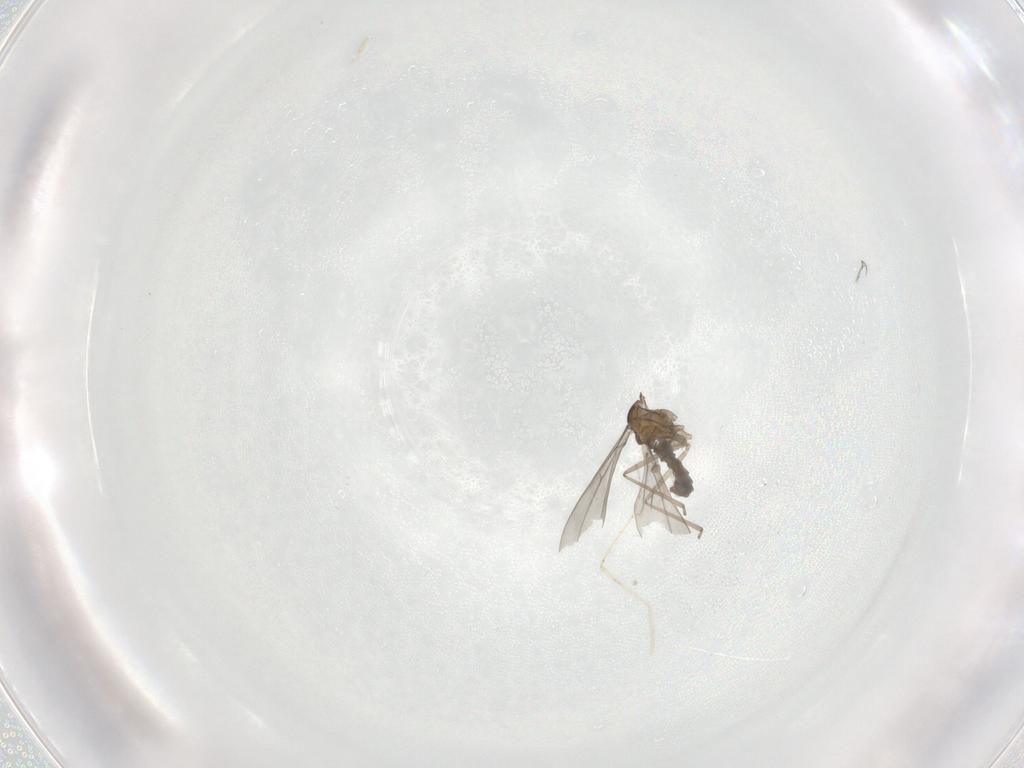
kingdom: Animalia
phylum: Arthropoda
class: Insecta
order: Diptera
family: Cecidomyiidae
